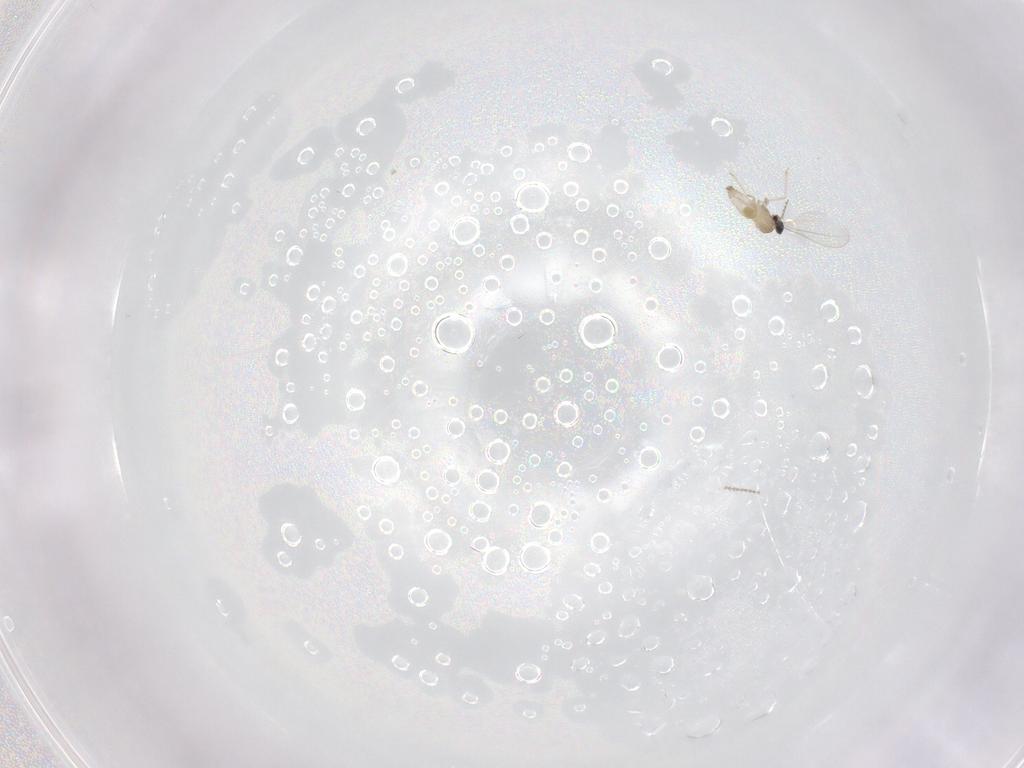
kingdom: Animalia
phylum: Arthropoda
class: Insecta
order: Diptera
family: Cecidomyiidae
